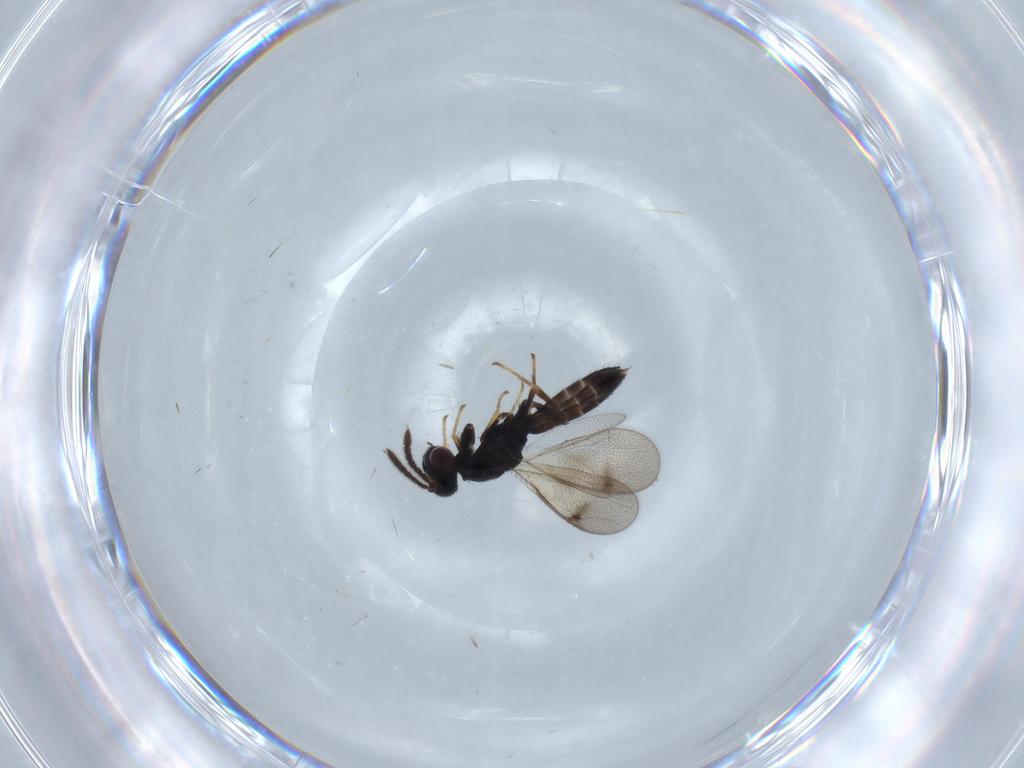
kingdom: Animalia
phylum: Arthropoda
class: Insecta
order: Hymenoptera
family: Pteromalidae
